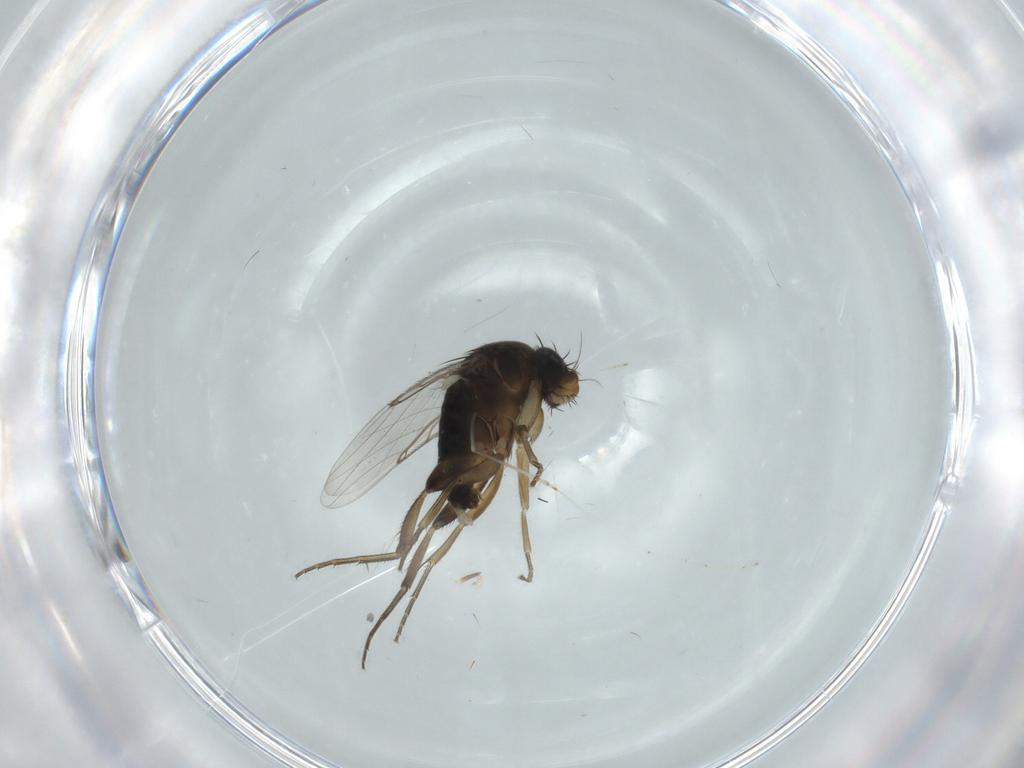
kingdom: Animalia
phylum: Arthropoda
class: Insecta
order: Diptera
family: Phoridae
